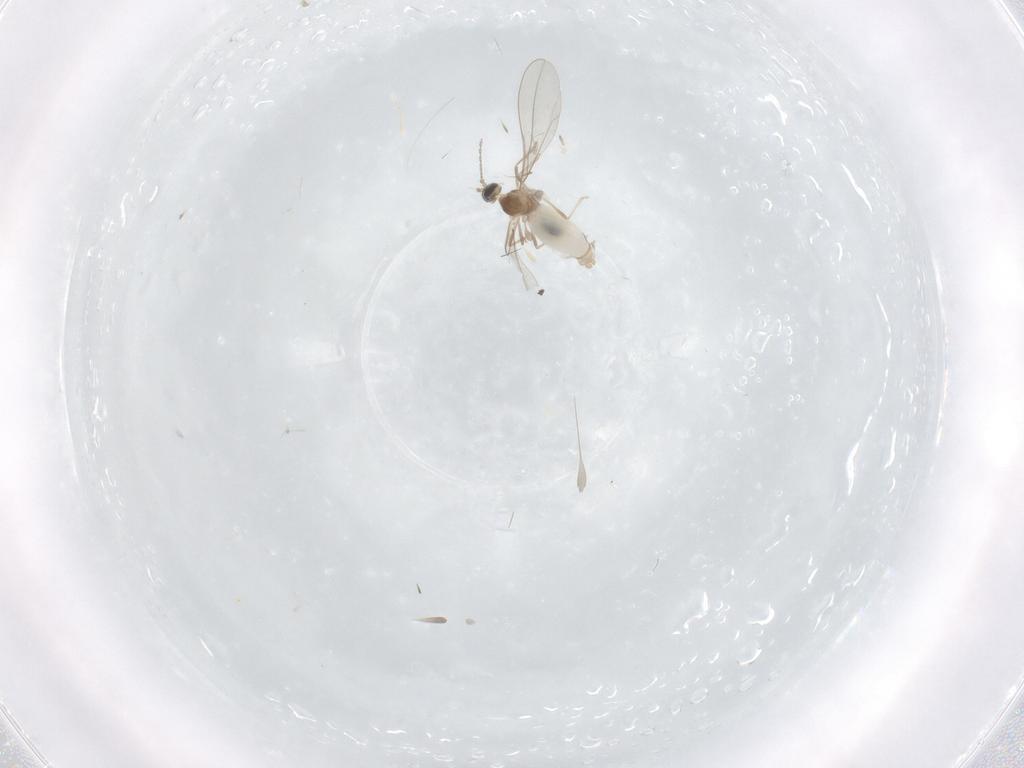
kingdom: Animalia
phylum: Arthropoda
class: Insecta
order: Diptera
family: Cecidomyiidae
